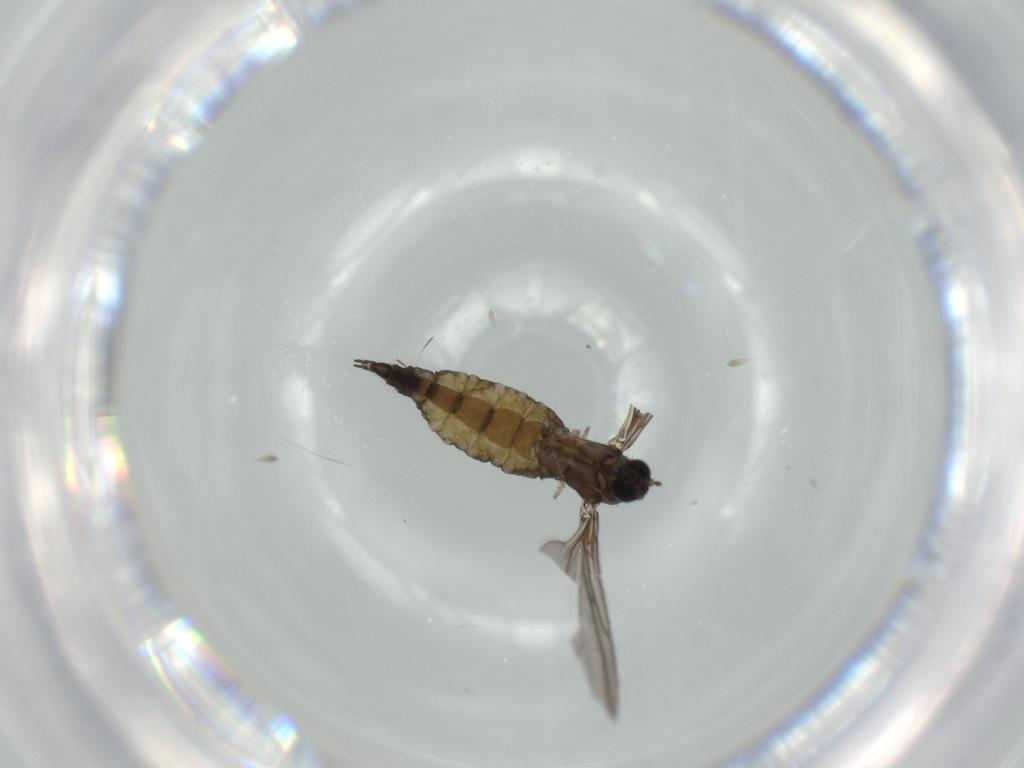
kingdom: Animalia
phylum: Arthropoda
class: Insecta
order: Diptera
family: Sciaridae
